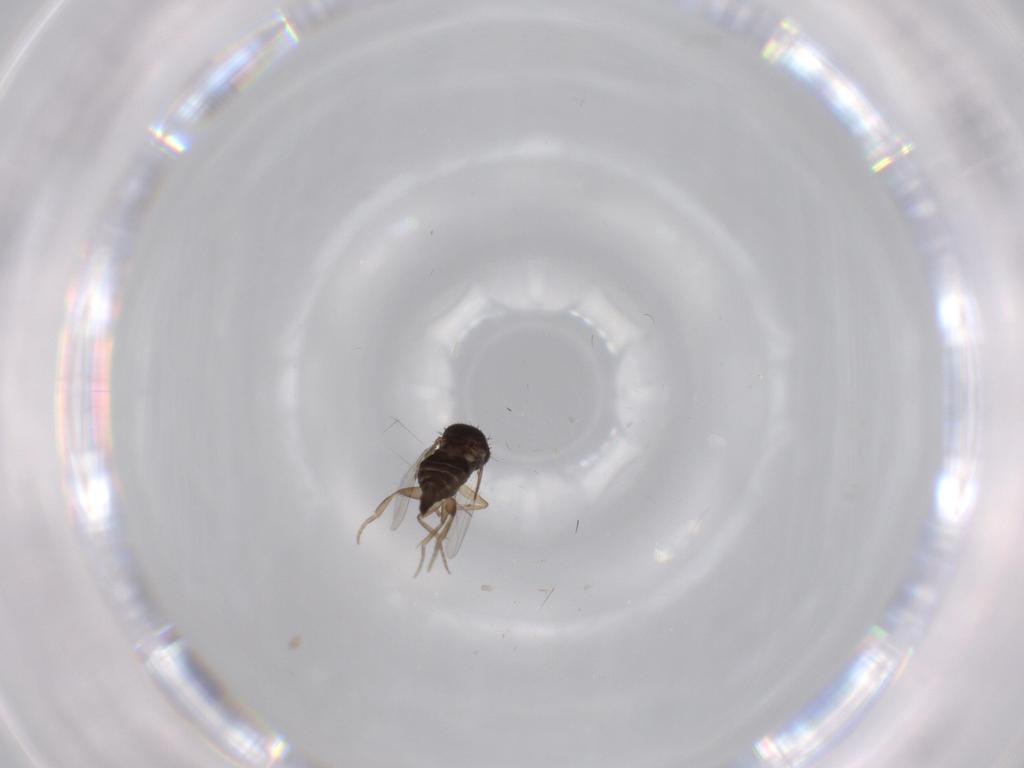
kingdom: Animalia
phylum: Arthropoda
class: Insecta
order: Diptera
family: Phoridae
